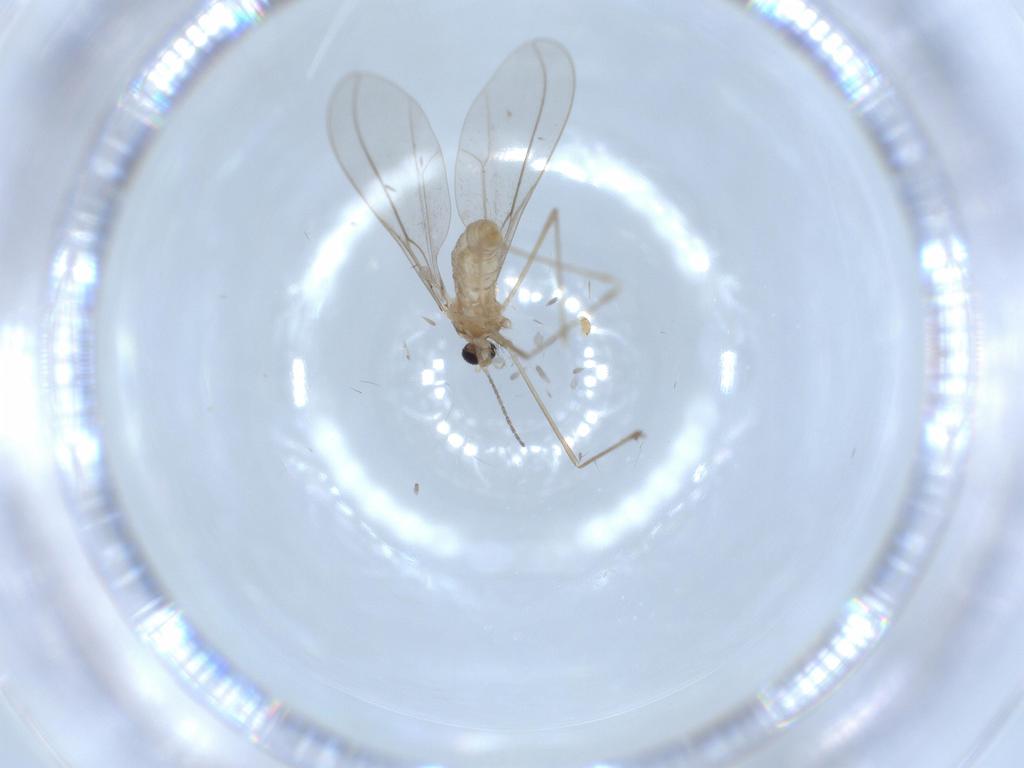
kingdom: Animalia
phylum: Arthropoda
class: Insecta
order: Diptera
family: Cecidomyiidae
